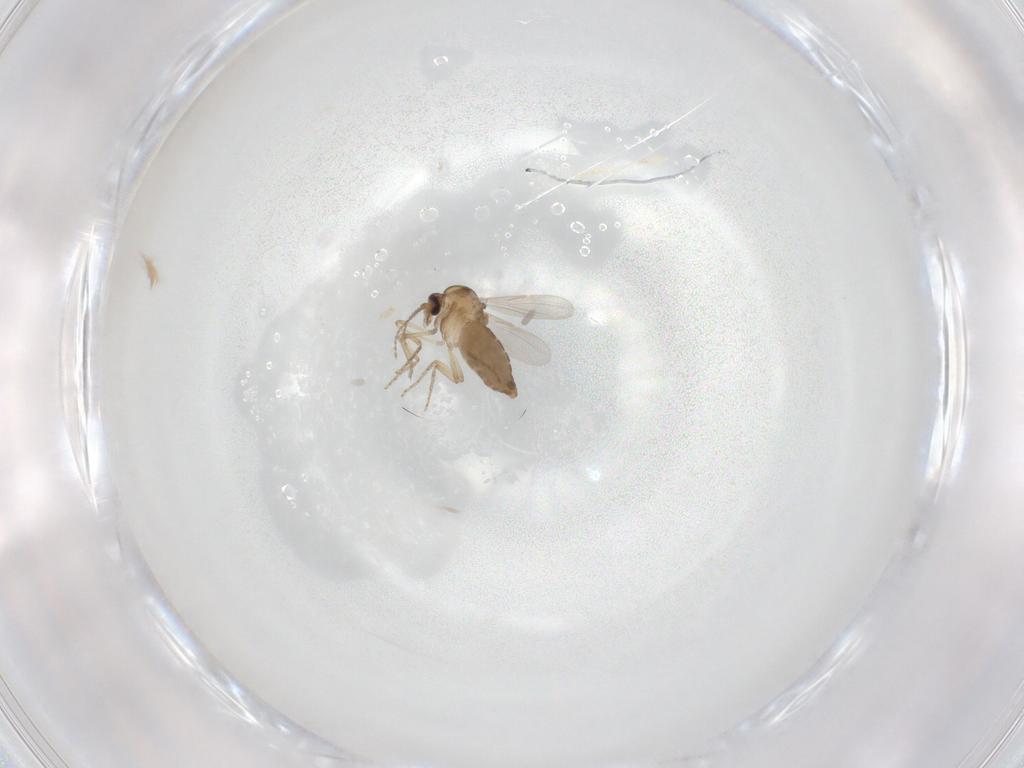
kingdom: Animalia
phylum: Arthropoda
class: Insecta
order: Diptera
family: Ceratopogonidae
